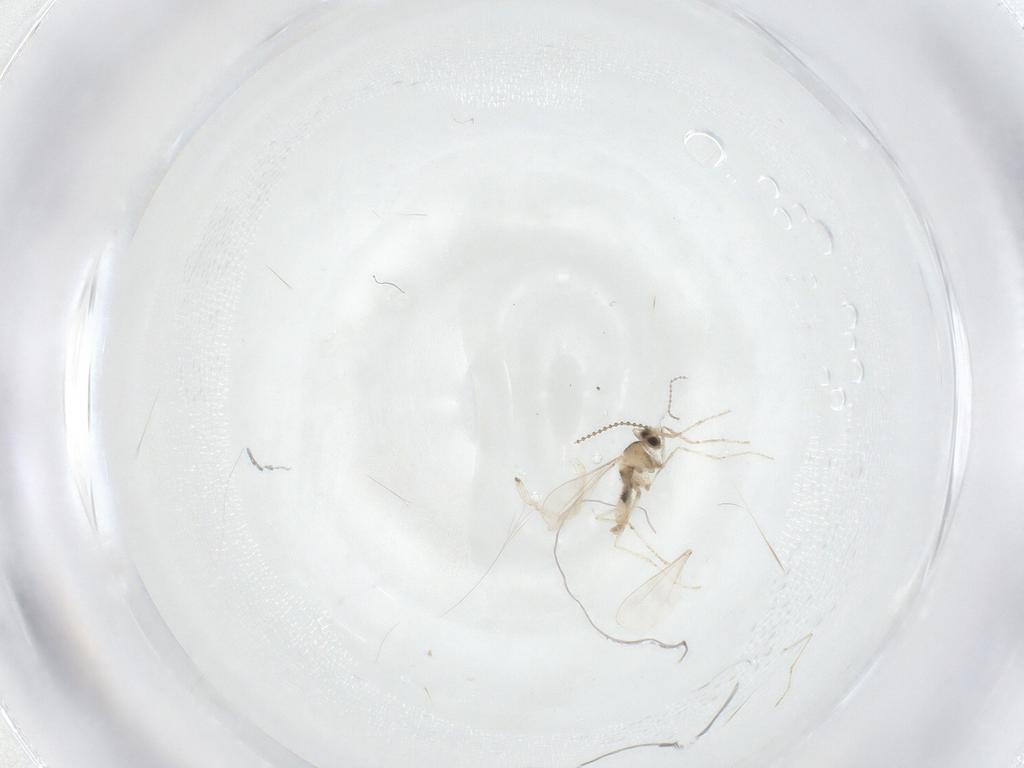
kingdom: Animalia
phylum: Arthropoda
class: Insecta
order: Diptera
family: Cecidomyiidae
